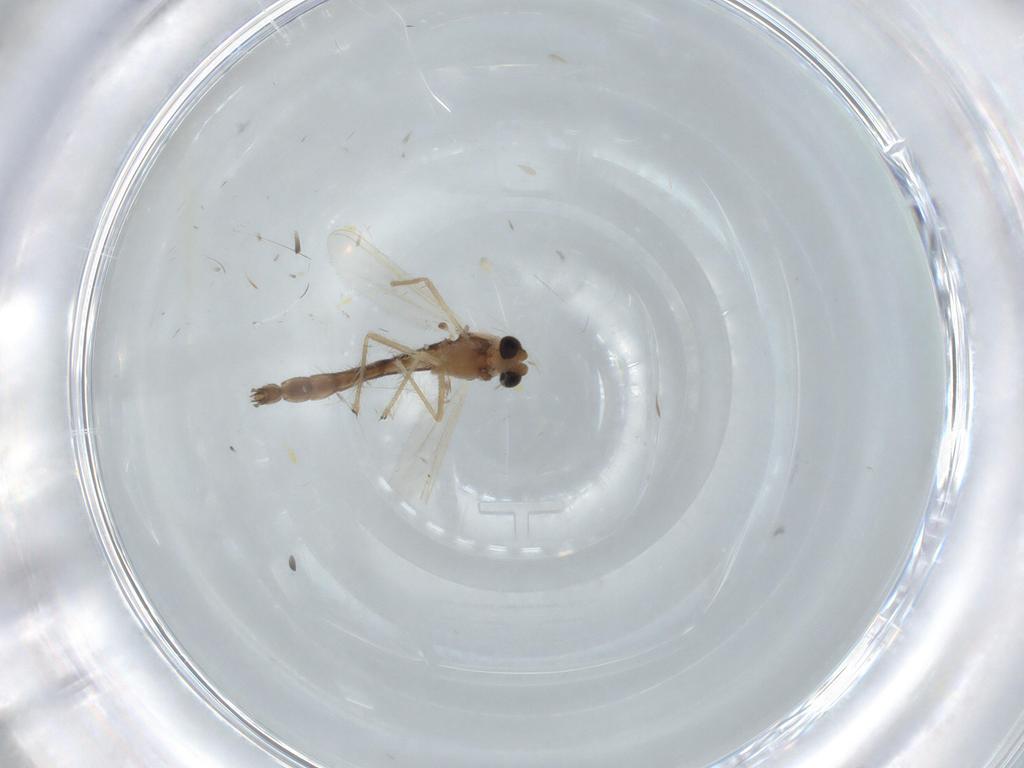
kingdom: Animalia
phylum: Arthropoda
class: Insecta
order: Diptera
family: Chironomidae
